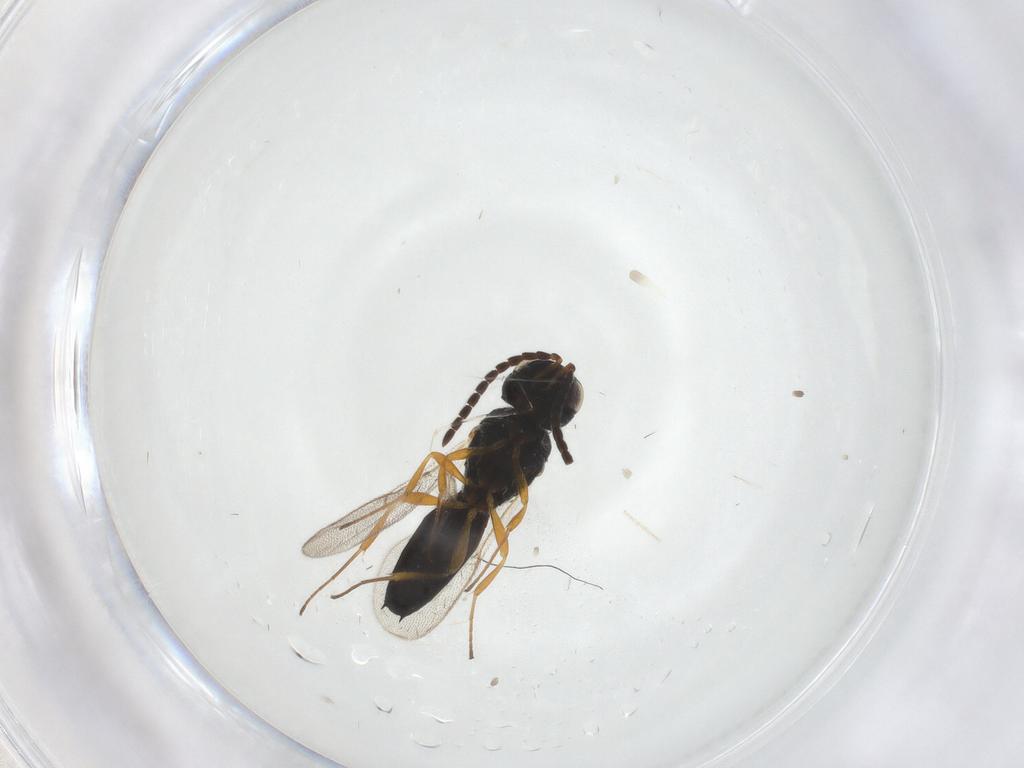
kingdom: Animalia
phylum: Arthropoda
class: Insecta
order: Hymenoptera
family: Scelionidae
